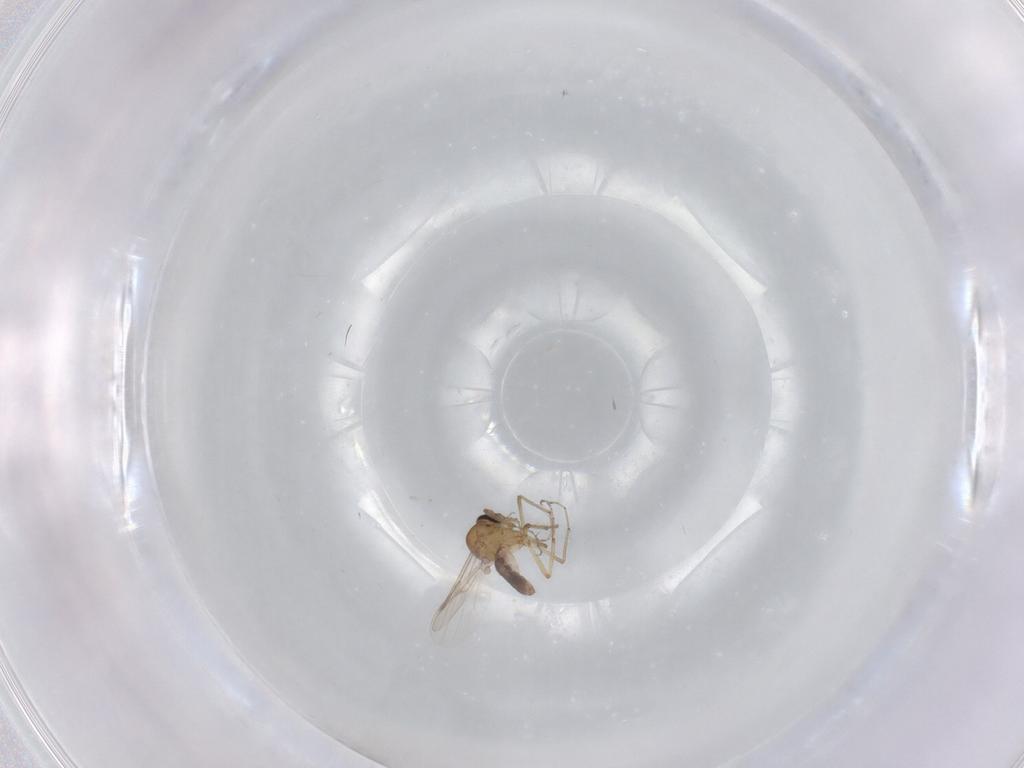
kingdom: Animalia
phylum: Arthropoda
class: Insecta
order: Diptera
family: Ceratopogonidae
